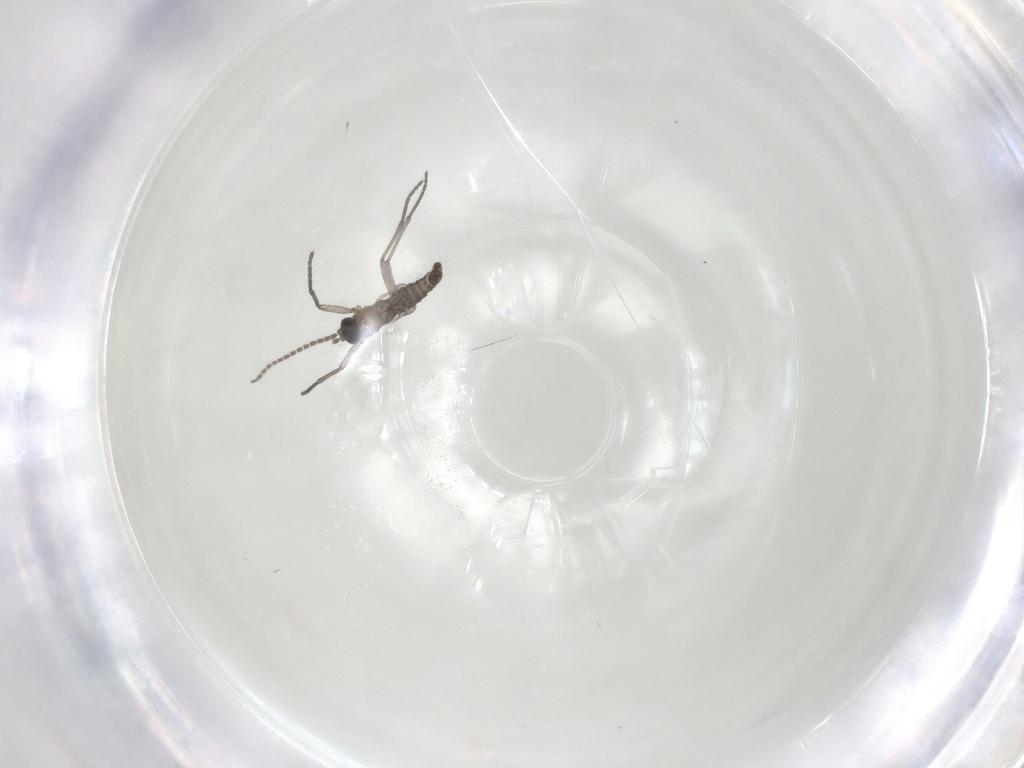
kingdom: Animalia
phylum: Arthropoda
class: Insecta
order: Diptera
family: Sciaridae
